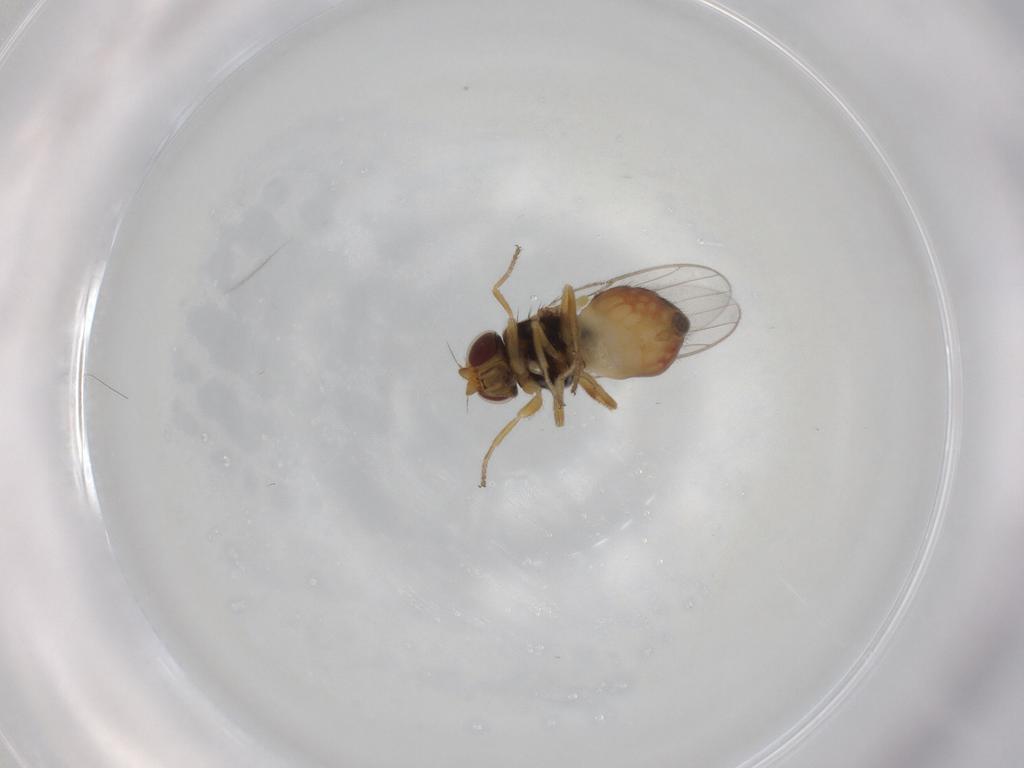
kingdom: Animalia
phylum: Arthropoda
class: Insecta
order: Diptera
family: Chloropidae
